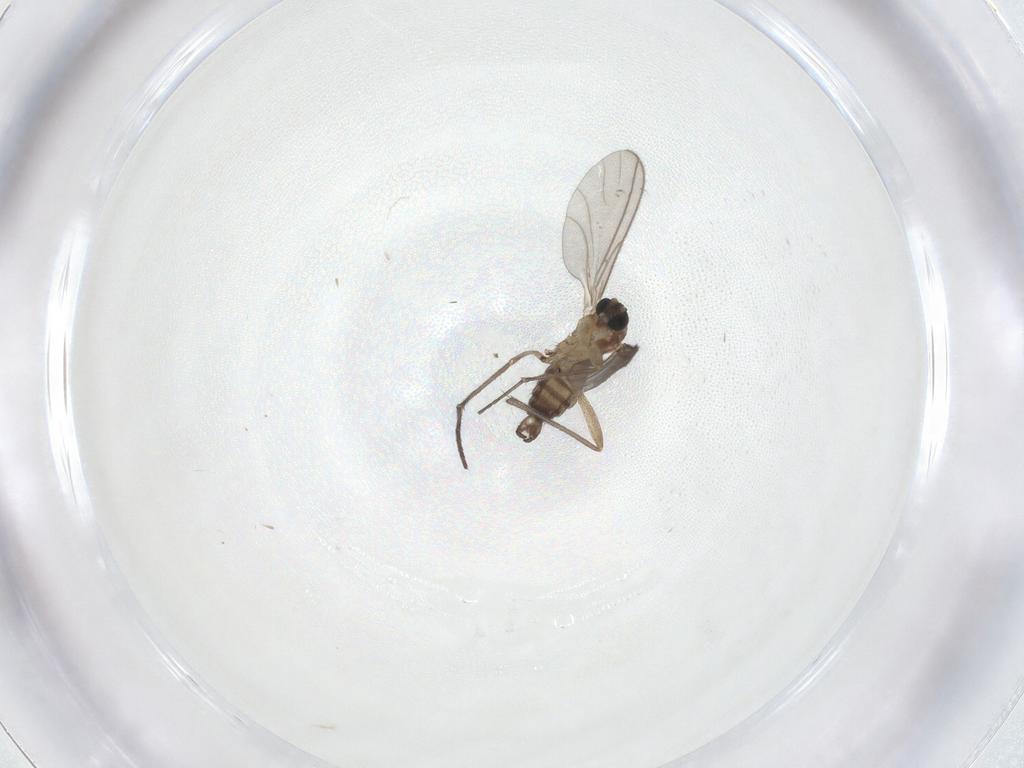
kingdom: Animalia
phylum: Arthropoda
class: Insecta
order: Diptera
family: Sciaridae
